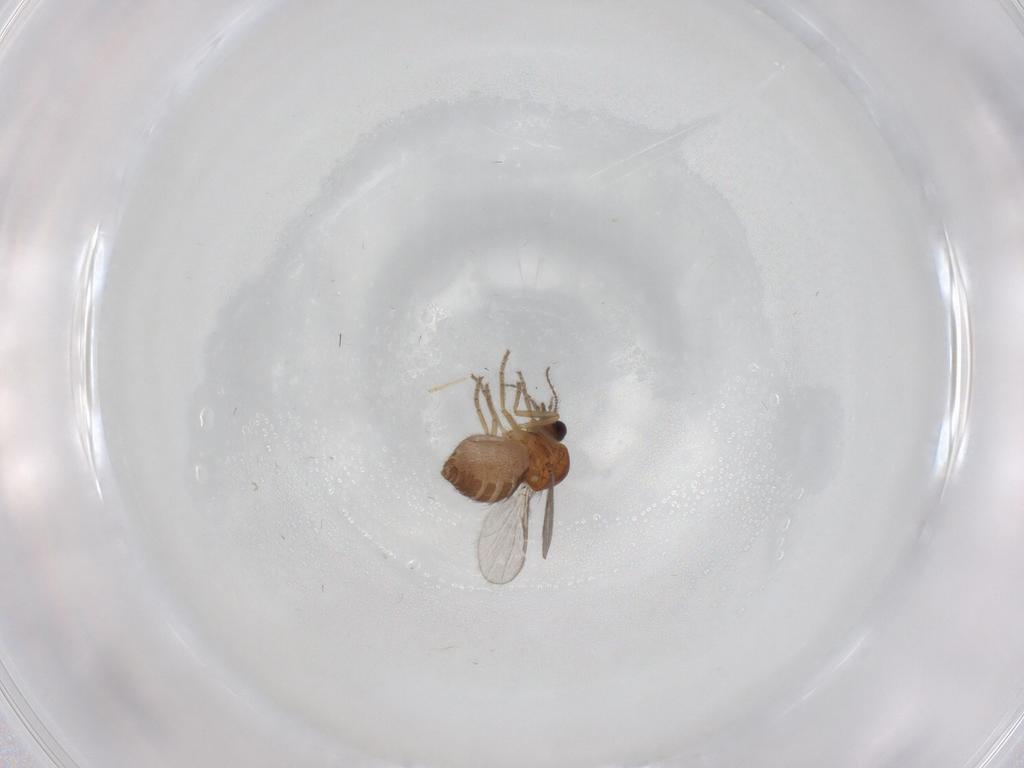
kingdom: Animalia
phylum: Arthropoda
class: Insecta
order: Diptera
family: Ceratopogonidae
